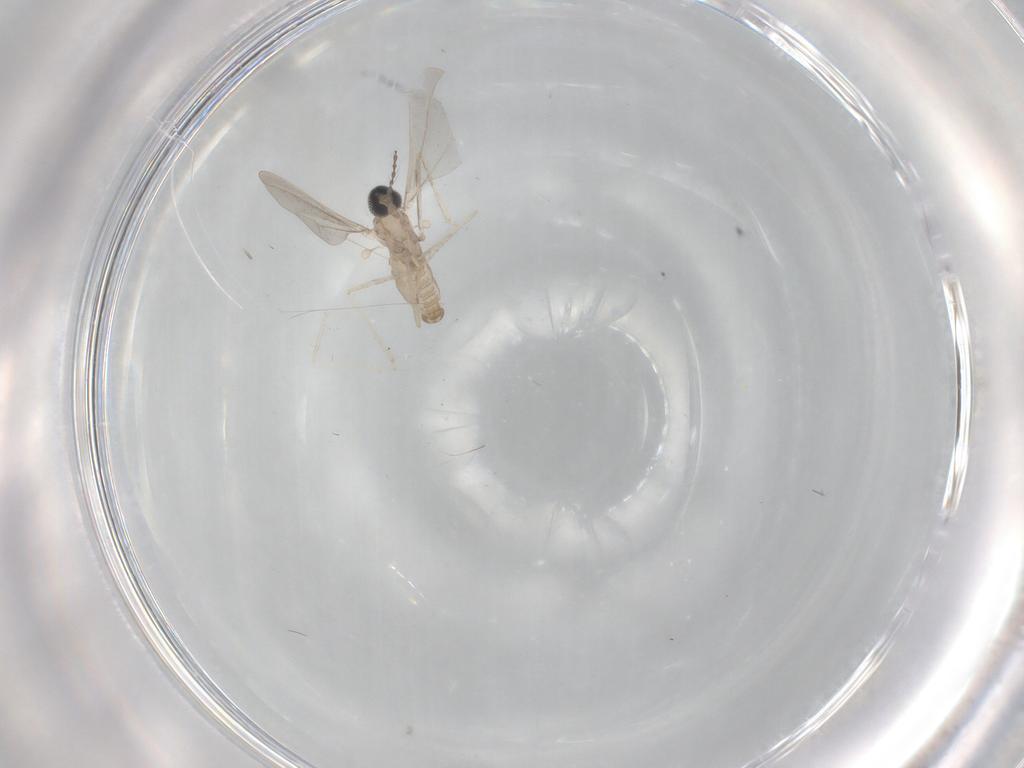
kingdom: Animalia
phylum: Arthropoda
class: Insecta
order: Diptera
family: Cecidomyiidae
